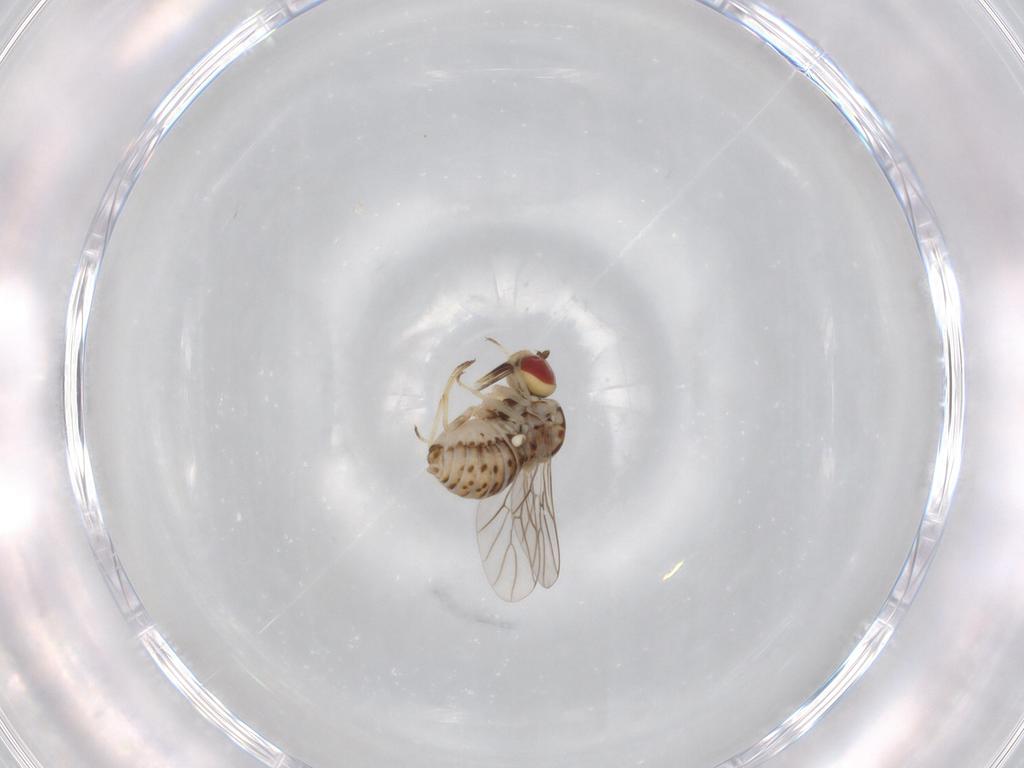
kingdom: Animalia
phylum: Arthropoda
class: Insecta
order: Diptera
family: Bombyliidae
